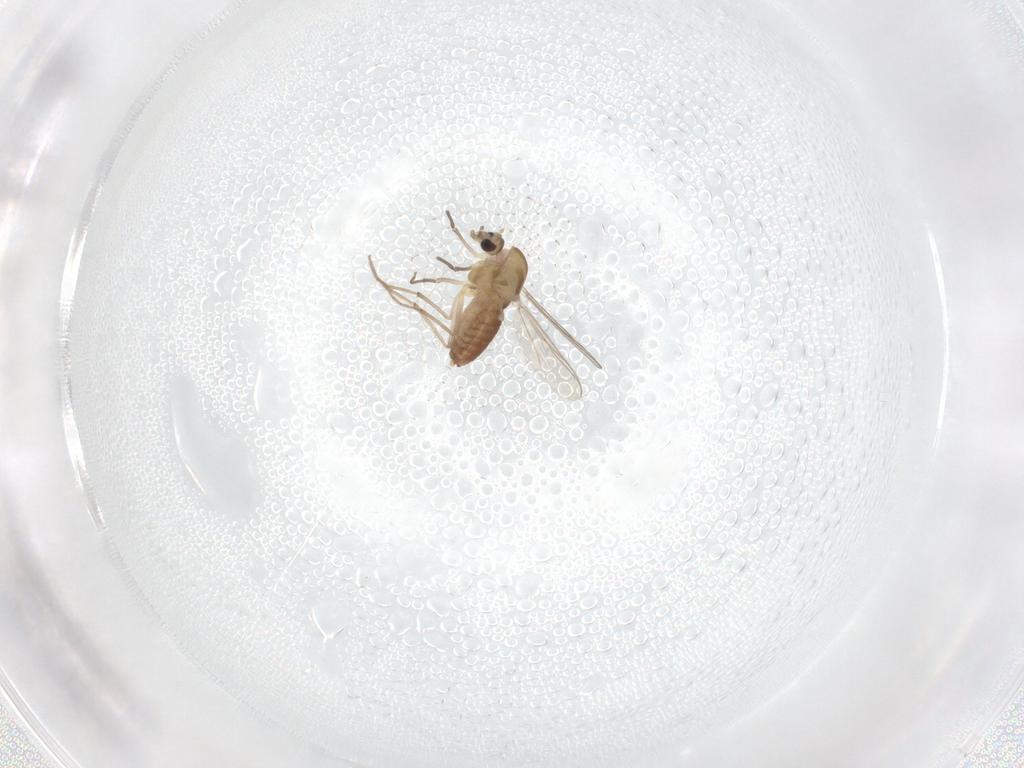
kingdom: Animalia
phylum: Arthropoda
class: Insecta
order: Diptera
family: Chironomidae
